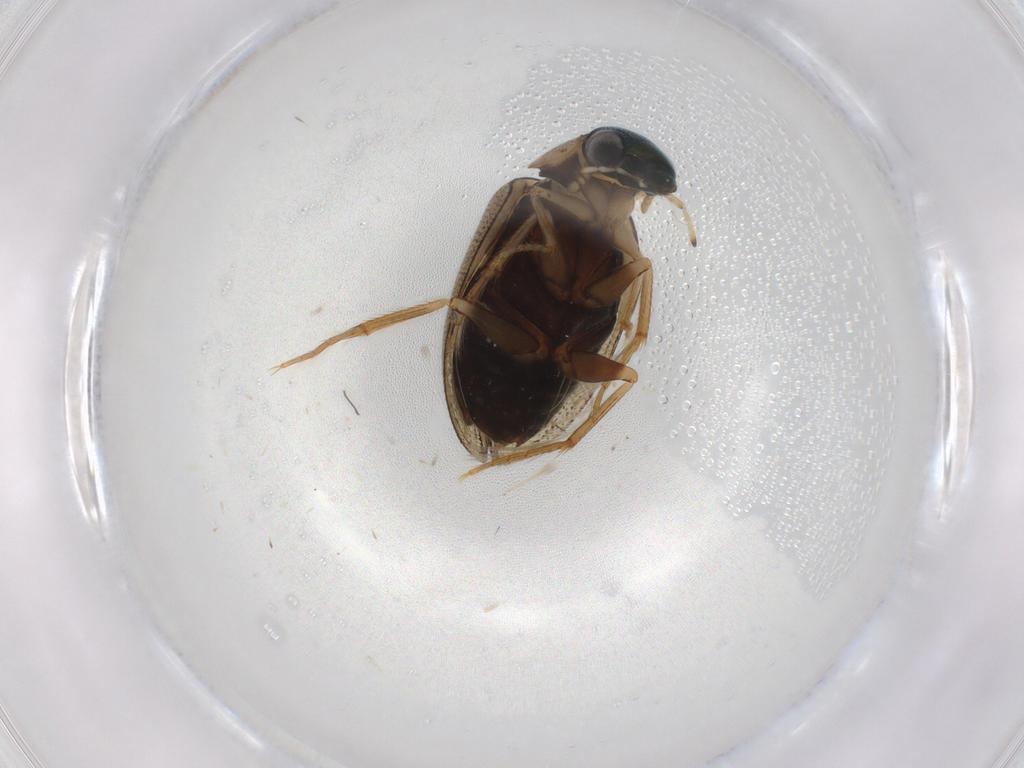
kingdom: Animalia
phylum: Arthropoda
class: Insecta
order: Coleoptera
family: Hydrophilidae
